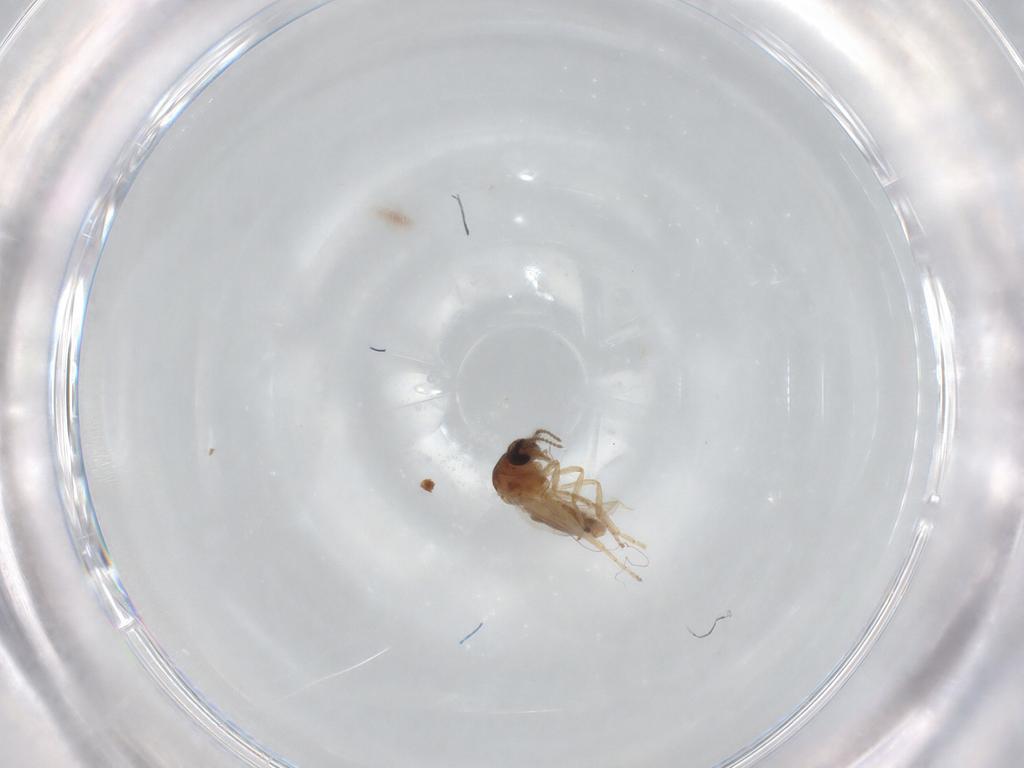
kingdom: Animalia
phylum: Arthropoda
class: Insecta
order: Diptera
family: Ceratopogonidae
